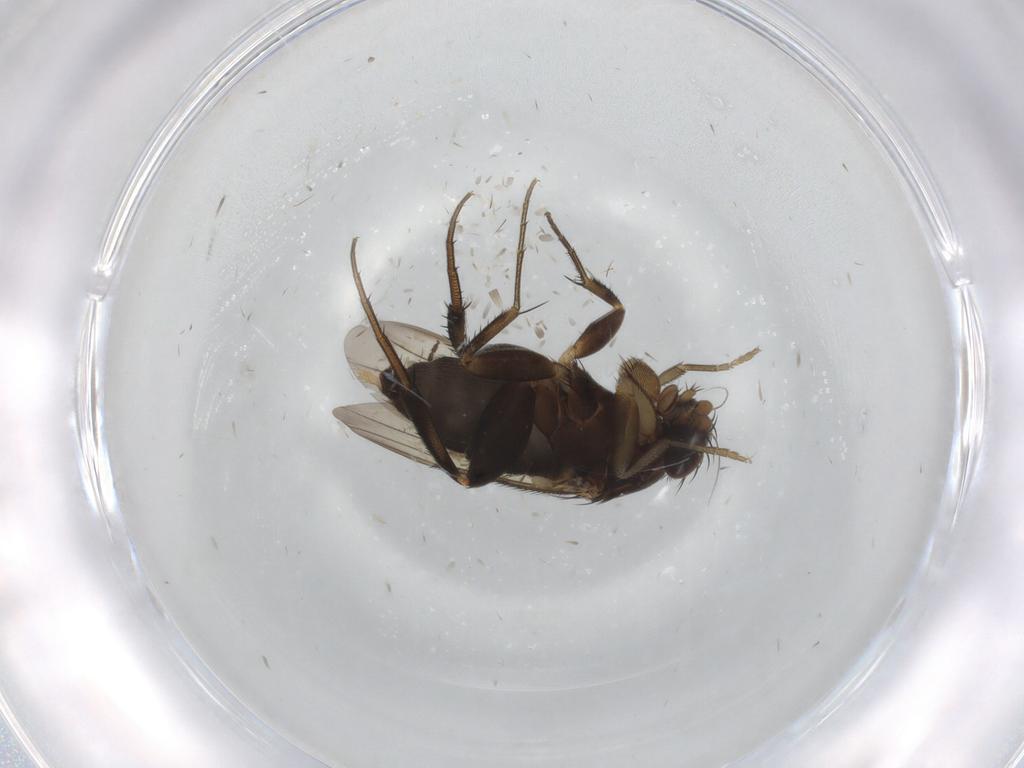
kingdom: Animalia
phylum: Arthropoda
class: Insecta
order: Diptera
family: Phoridae
